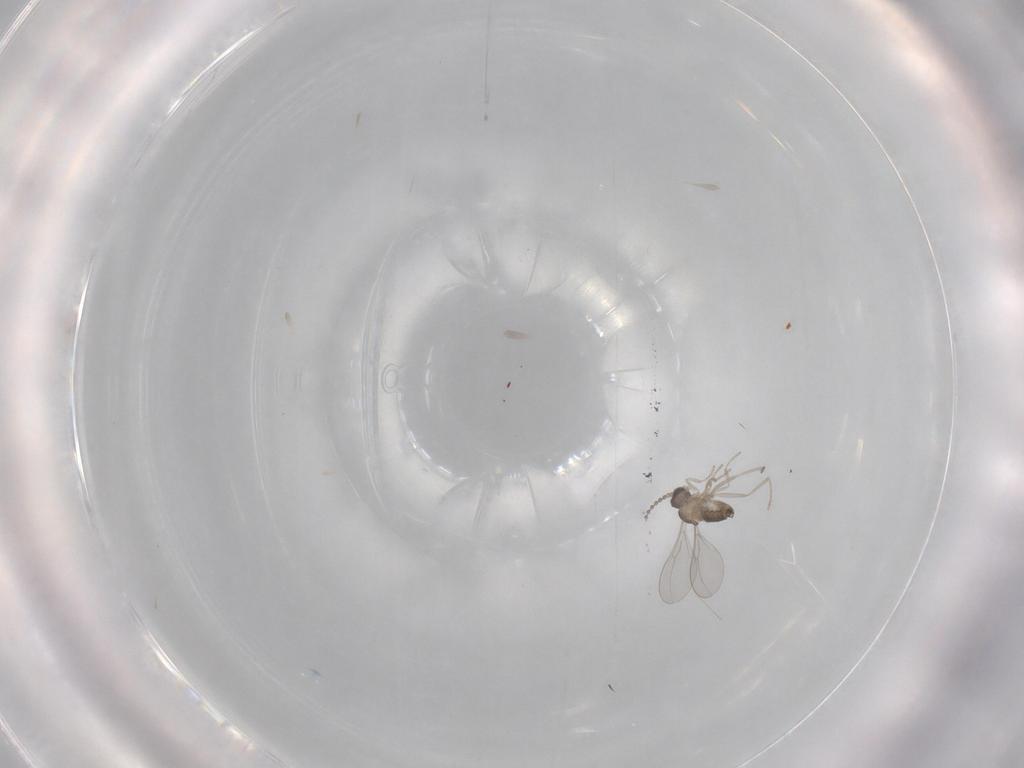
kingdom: Animalia
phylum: Arthropoda
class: Insecta
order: Diptera
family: Cecidomyiidae
